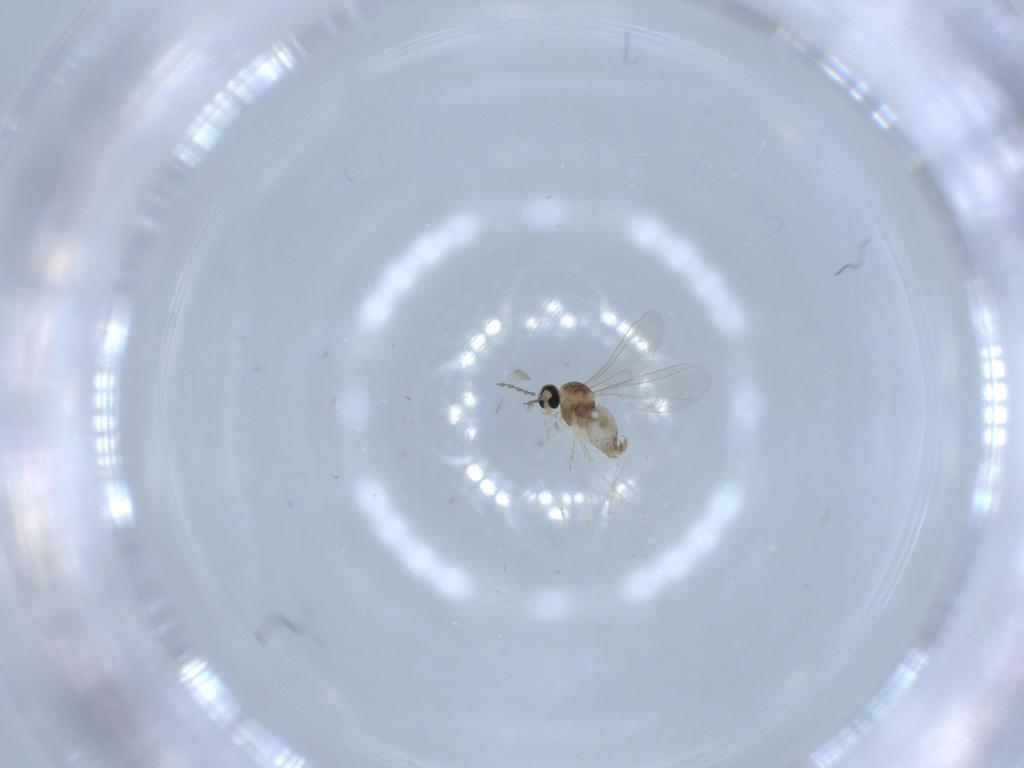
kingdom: Animalia
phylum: Arthropoda
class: Insecta
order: Diptera
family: Cecidomyiidae
